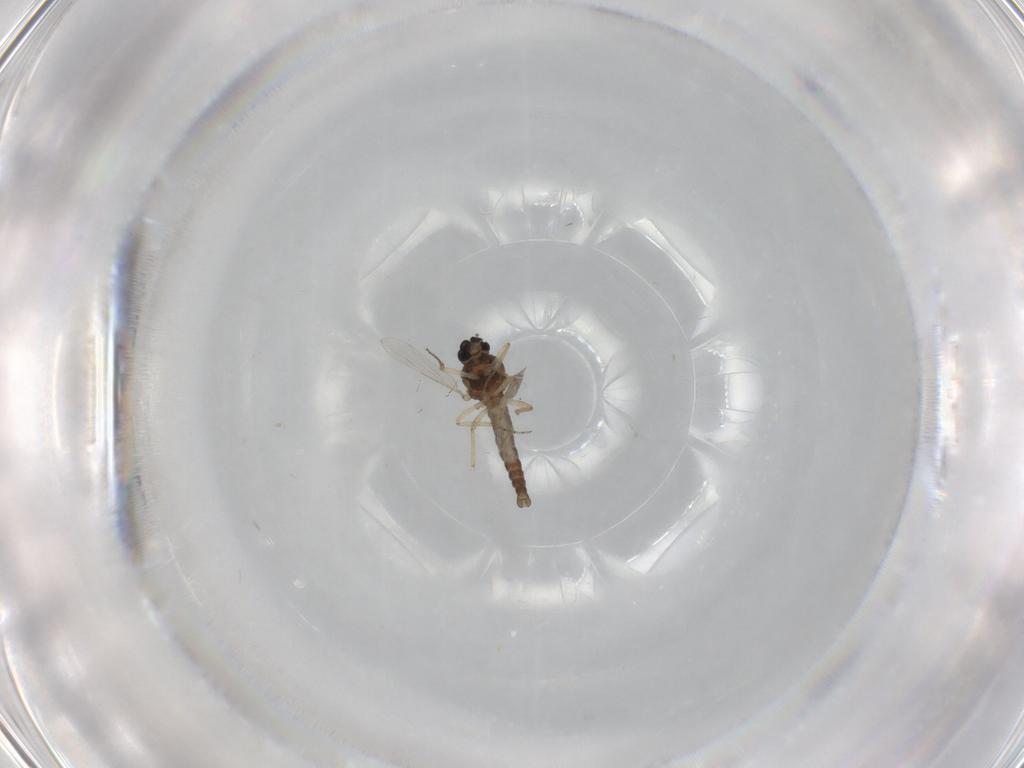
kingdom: Animalia
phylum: Arthropoda
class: Insecta
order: Diptera
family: Ceratopogonidae
